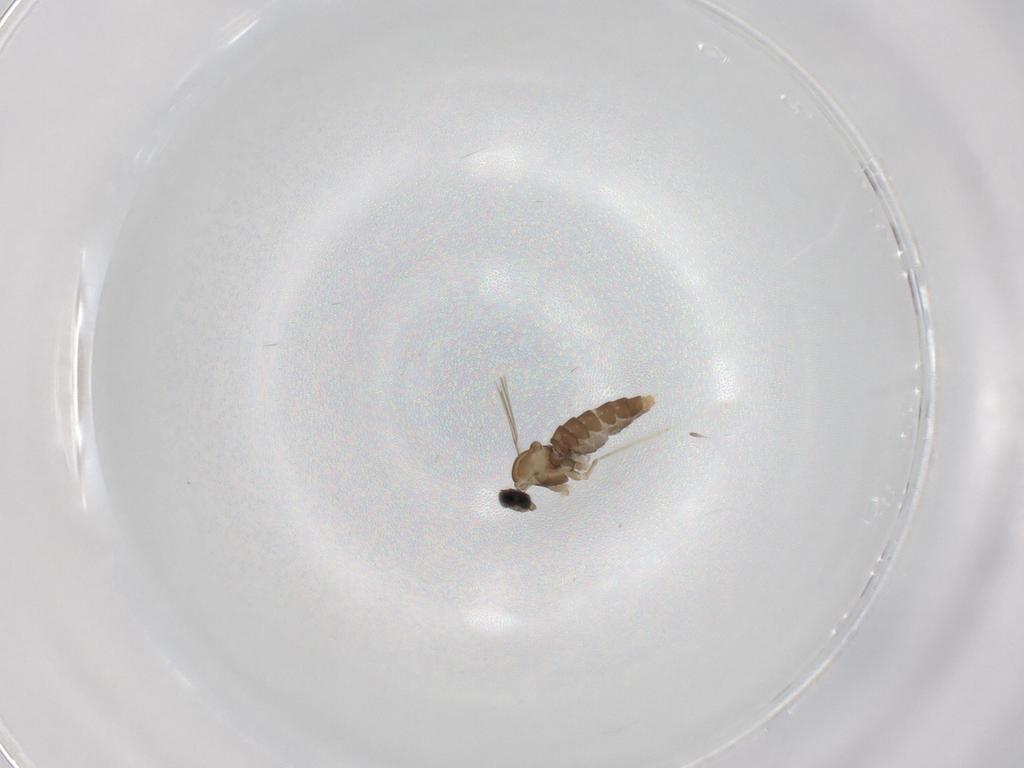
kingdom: Animalia
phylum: Arthropoda
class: Insecta
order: Diptera
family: Cecidomyiidae
